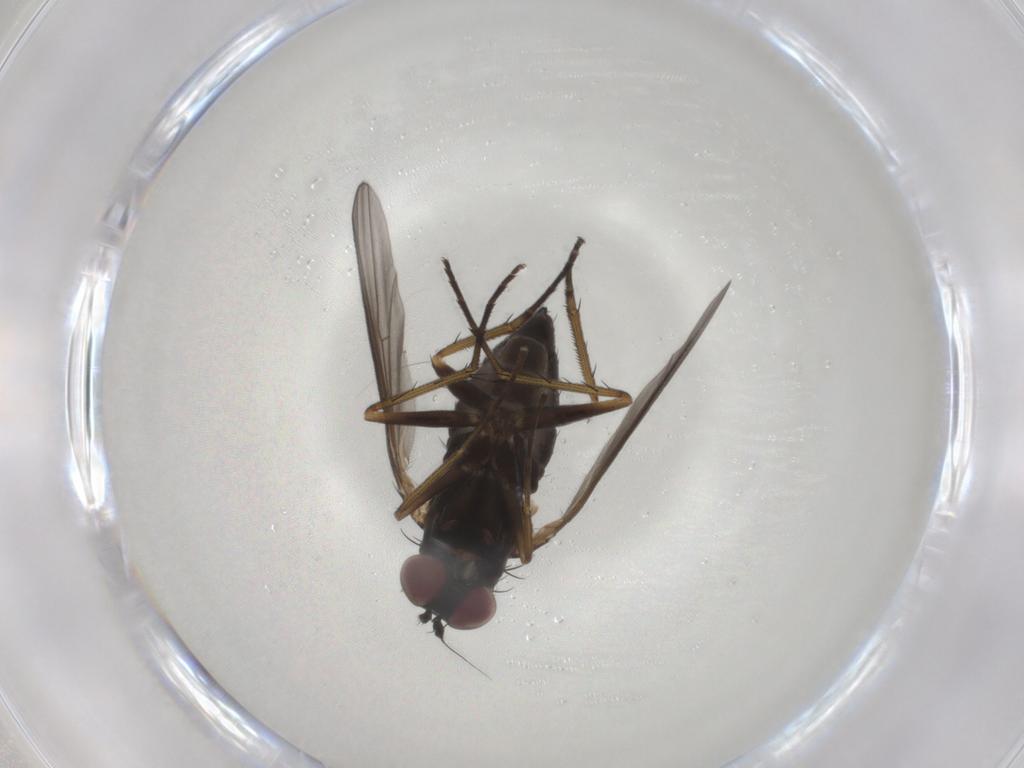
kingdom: Animalia
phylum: Arthropoda
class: Insecta
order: Diptera
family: Dolichopodidae
